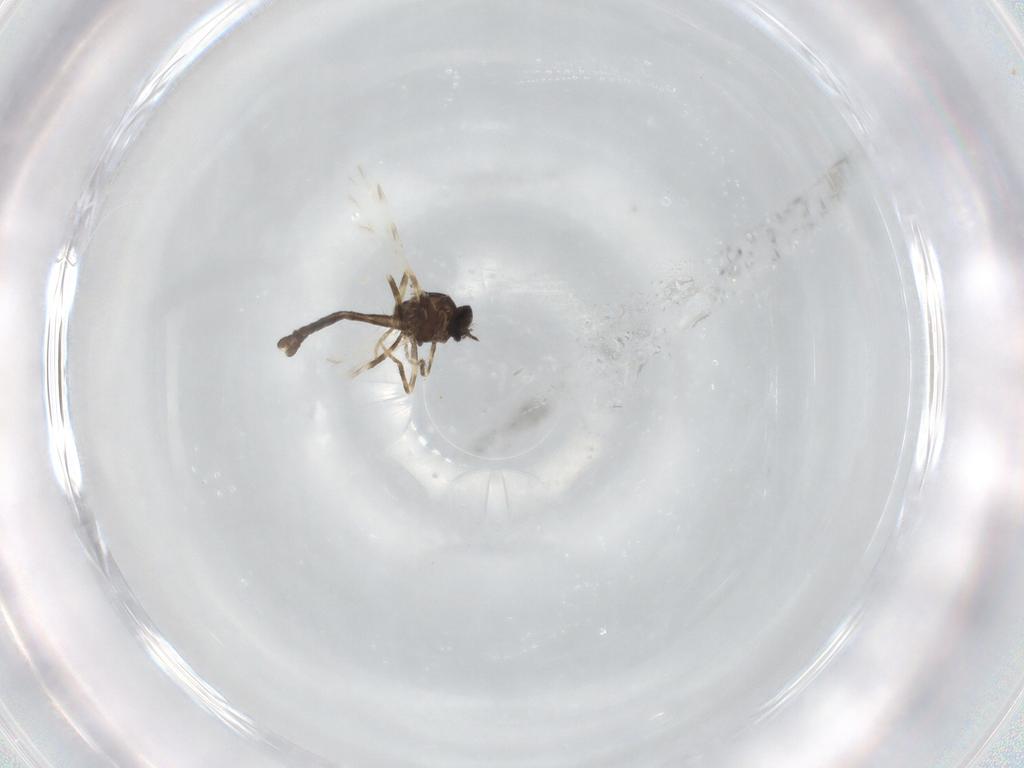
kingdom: Animalia
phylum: Arthropoda
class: Insecta
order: Diptera
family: Ceratopogonidae
